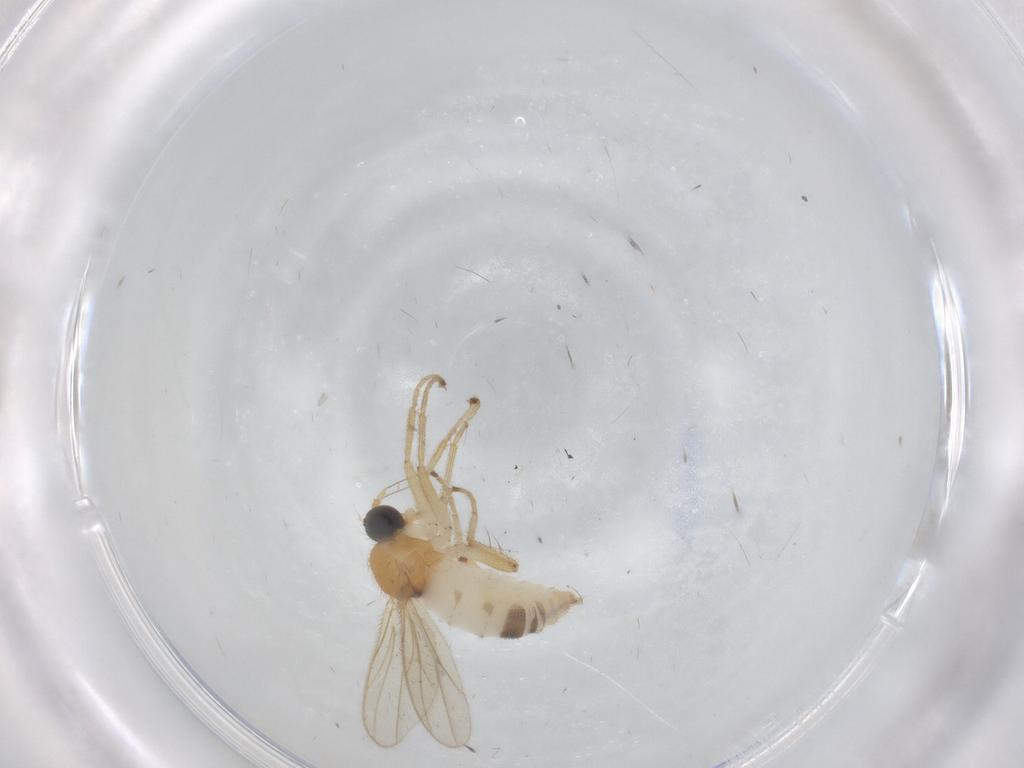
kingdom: Animalia
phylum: Arthropoda
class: Insecta
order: Diptera
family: Hybotidae
